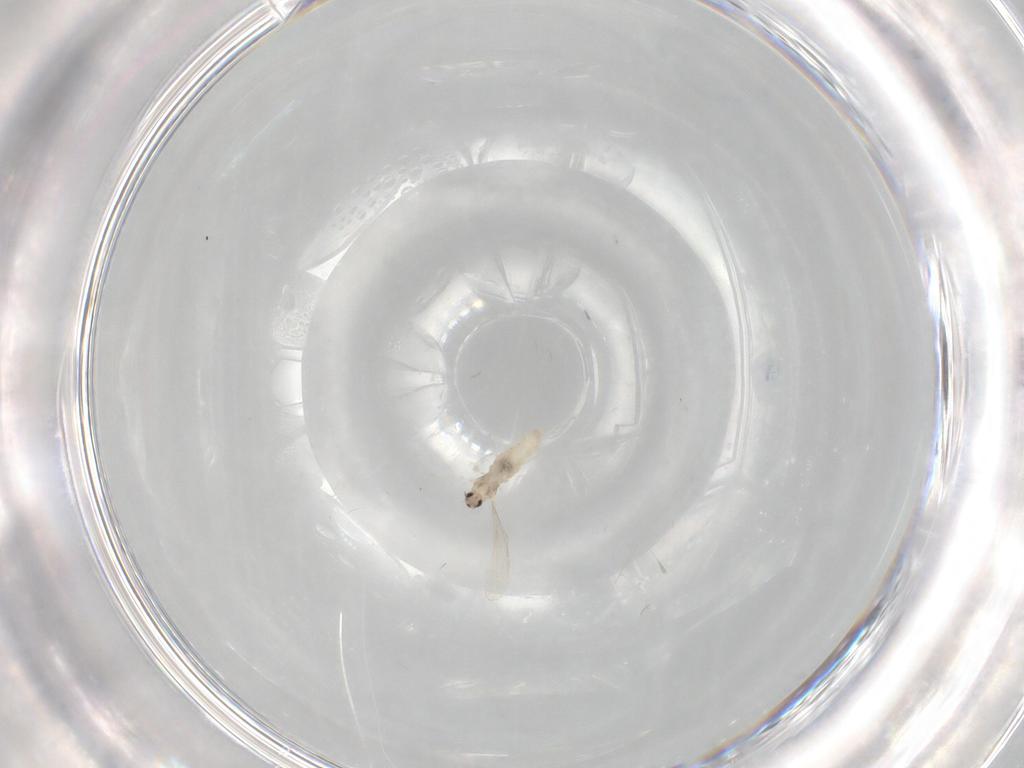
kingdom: Animalia
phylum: Arthropoda
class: Insecta
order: Diptera
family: Cecidomyiidae
